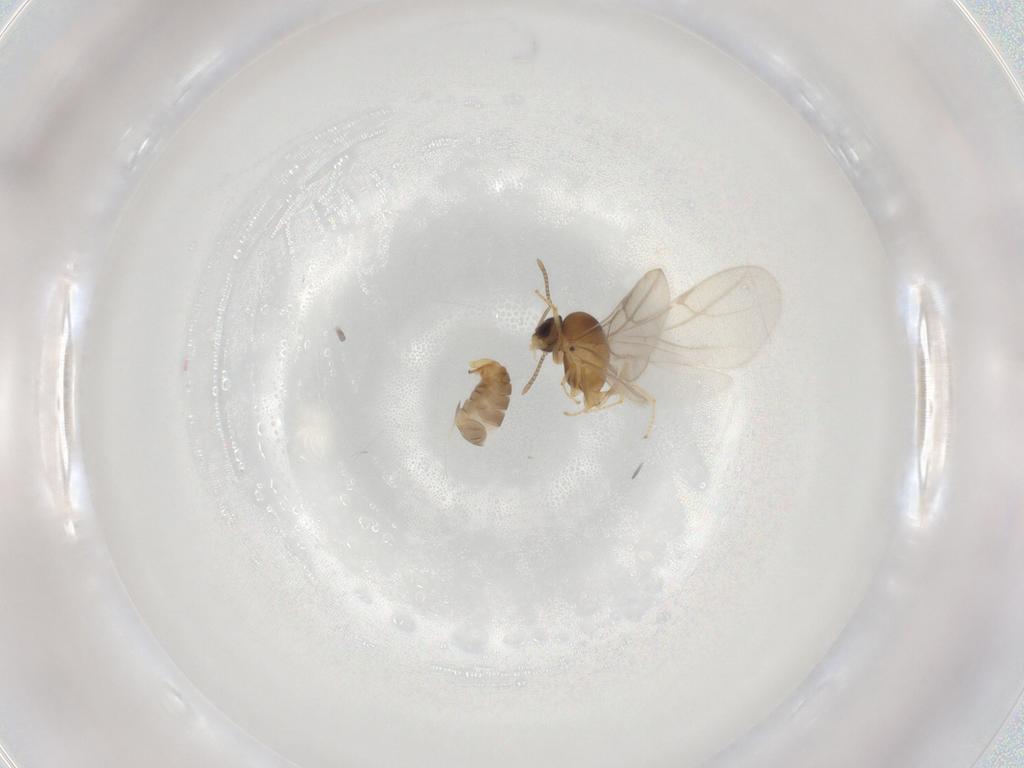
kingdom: Animalia
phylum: Arthropoda
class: Insecta
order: Hymenoptera
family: Formicidae
